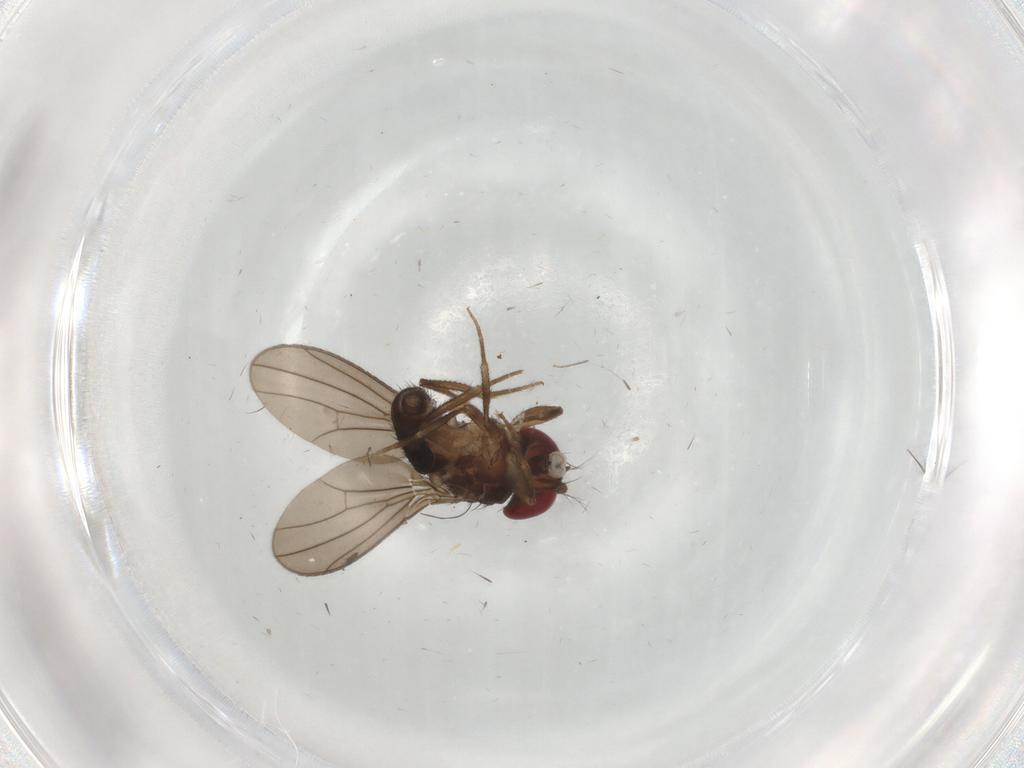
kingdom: Animalia
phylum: Arthropoda
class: Insecta
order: Diptera
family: Drosophilidae
